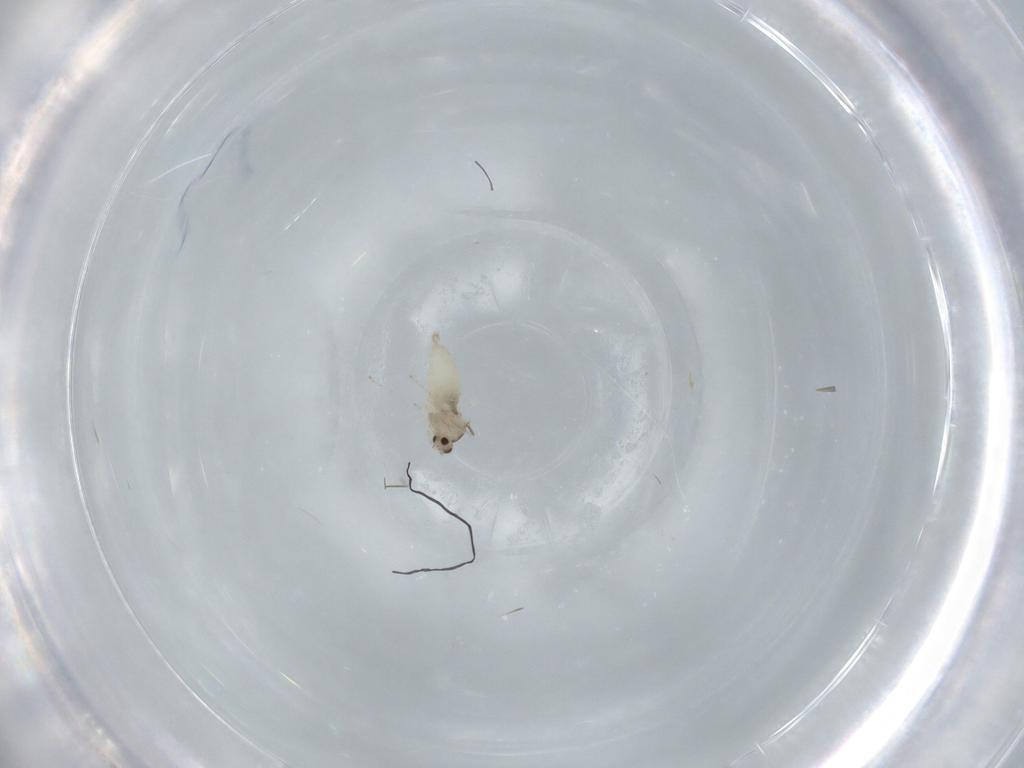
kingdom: Animalia
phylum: Arthropoda
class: Insecta
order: Diptera
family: Cecidomyiidae
